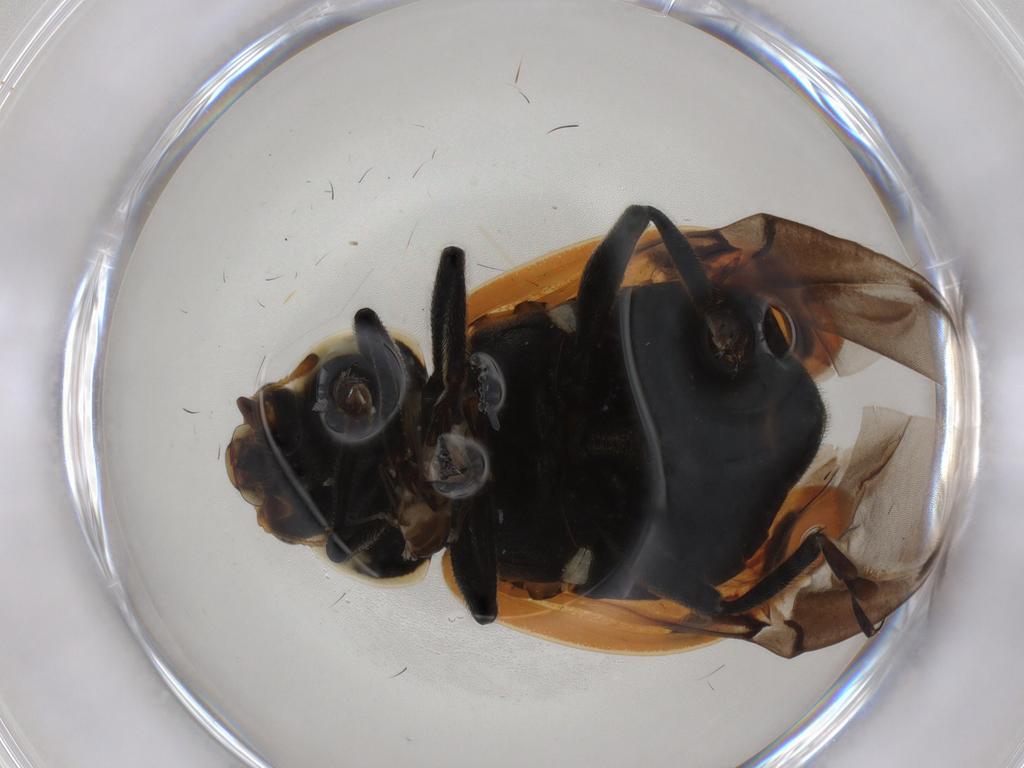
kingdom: Animalia
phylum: Arthropoda
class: Insecta
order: Coleoptera
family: Coccinellidae
